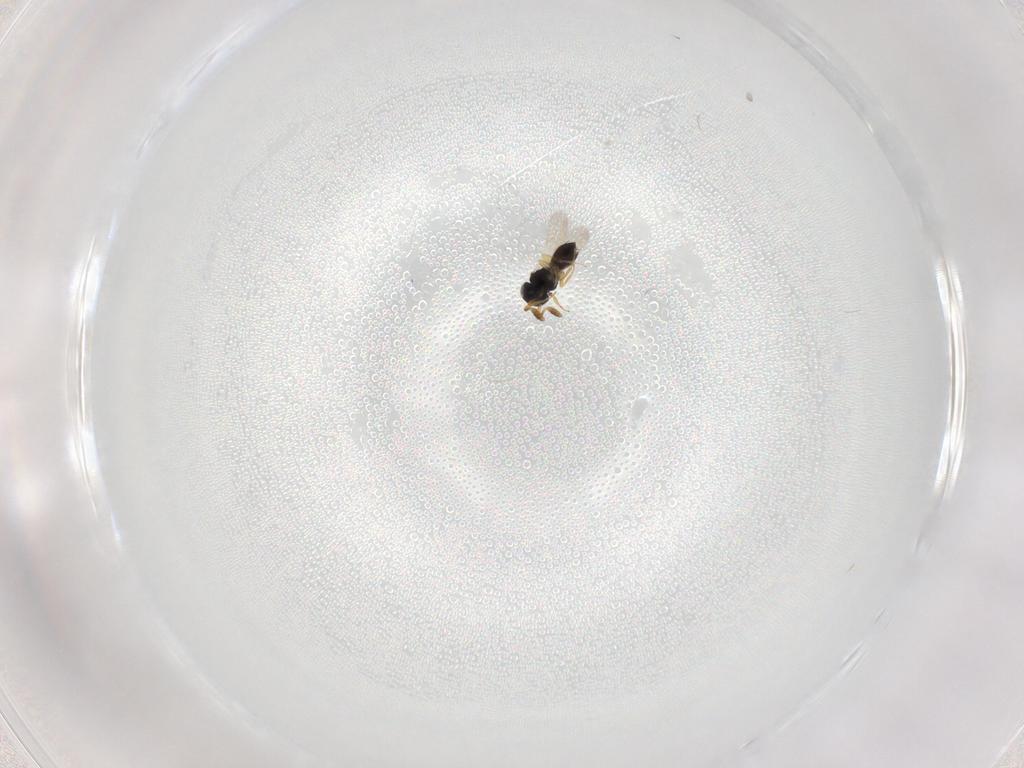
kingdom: Animalia
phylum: Arthropoda
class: Insecta
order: Hymenoptera
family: Scelionidae
